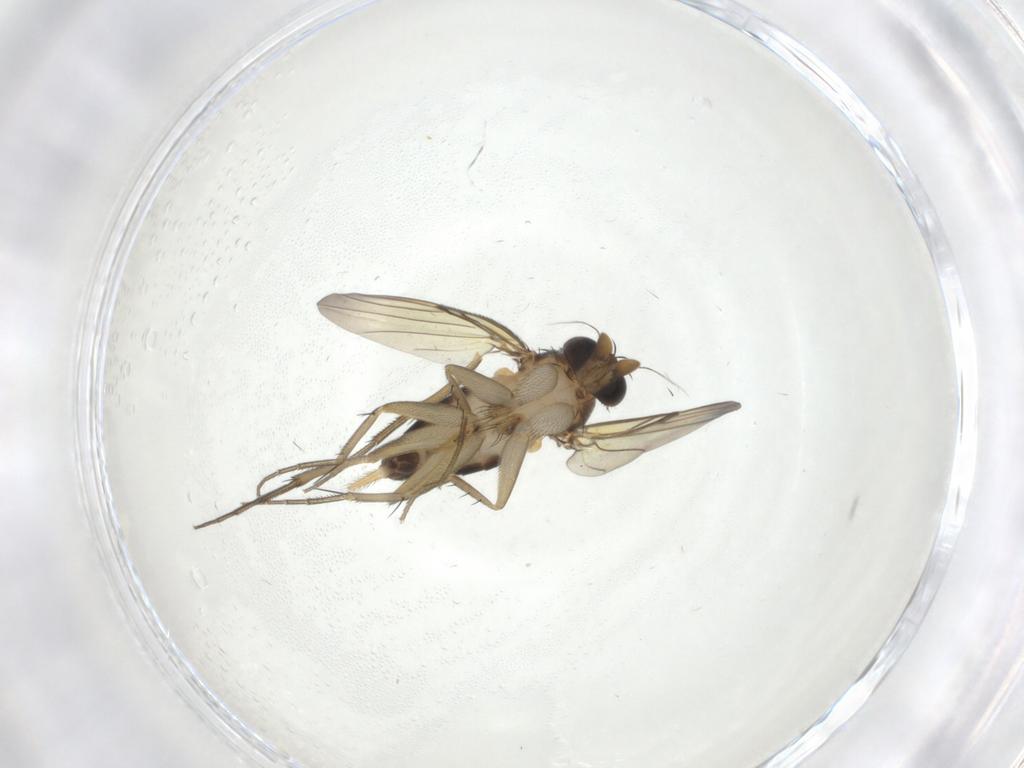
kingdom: Animalia
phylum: Arthropoda
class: Insecta
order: Diptera
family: Phoridae
